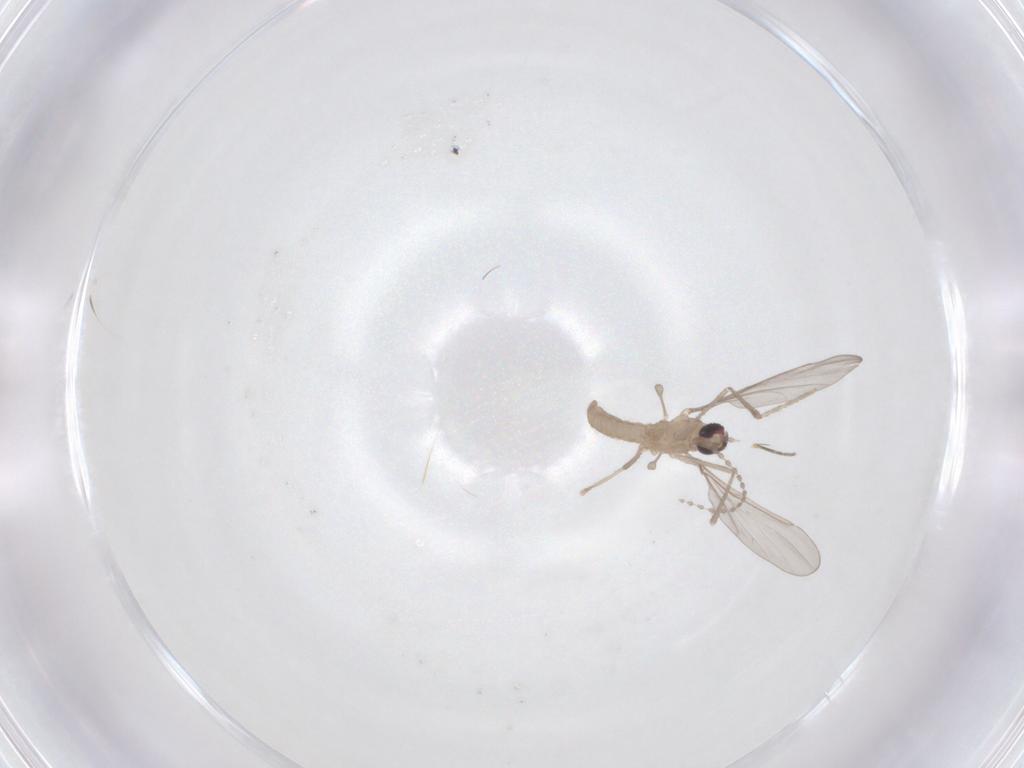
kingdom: Animalia
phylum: Arthropoda
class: Insecta
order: Diptera
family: Cecidomyiidae
